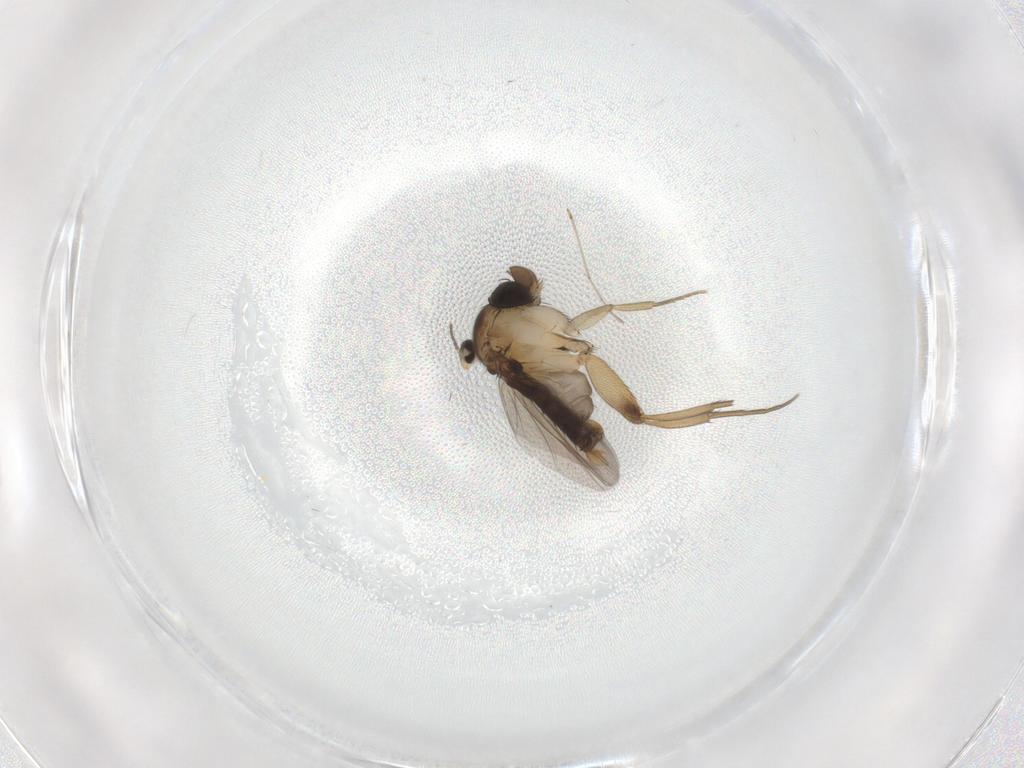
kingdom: Animalia
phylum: Arthropoda
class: Insecta
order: Diptera
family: Phoridae
